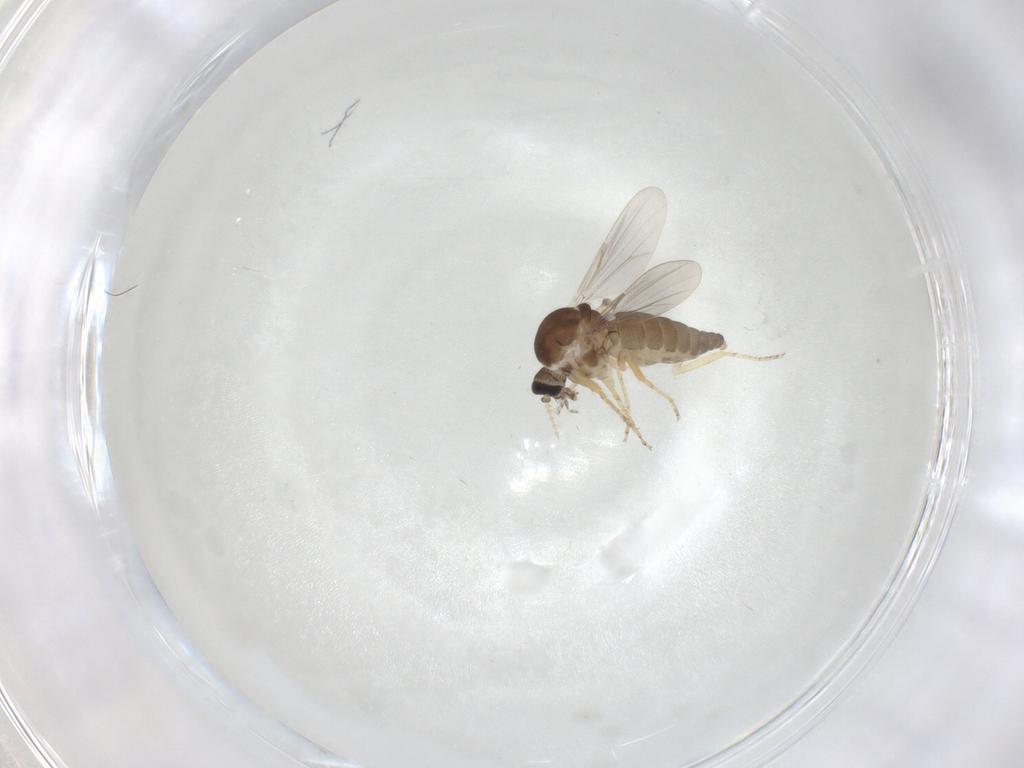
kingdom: Animalia
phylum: Arthropoda
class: Insecta
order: Diptera
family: Ceratopogonidae
